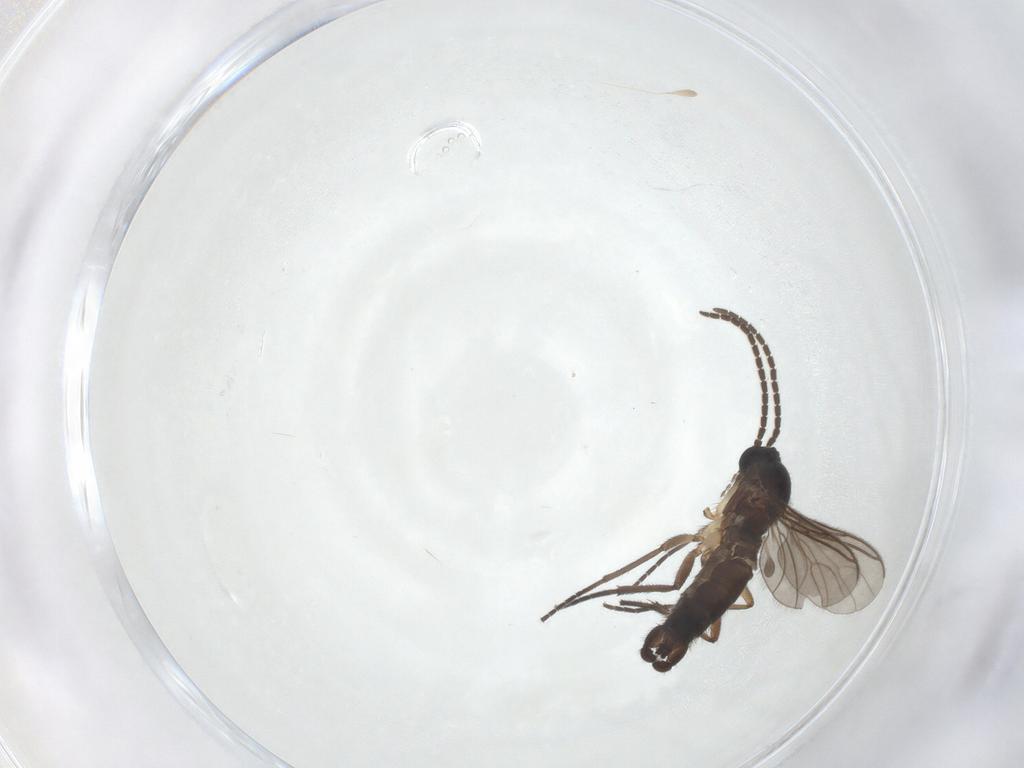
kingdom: Animalia
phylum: Arthropoda
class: Insecta
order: Diptera
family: Sciaridae
